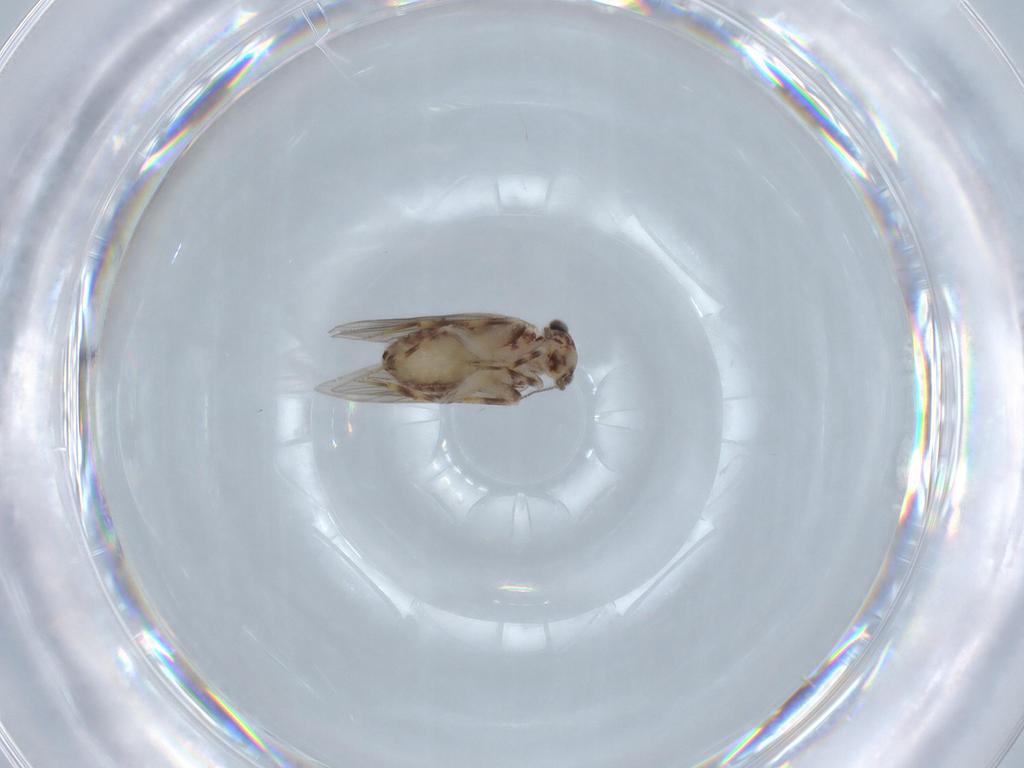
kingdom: Animalia
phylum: Arthropoda
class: Insecta
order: Psocodea
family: Lepidopsocidae
